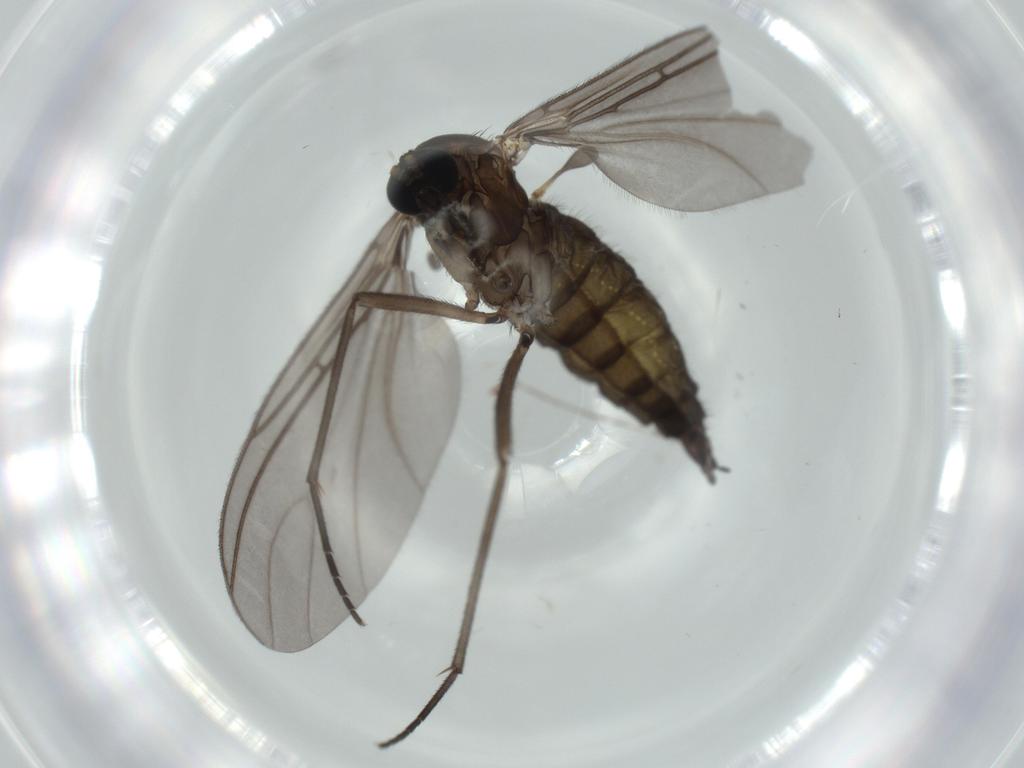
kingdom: Animalia
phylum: Arthropoda
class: Insecta
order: Diptera
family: Sciaridae
